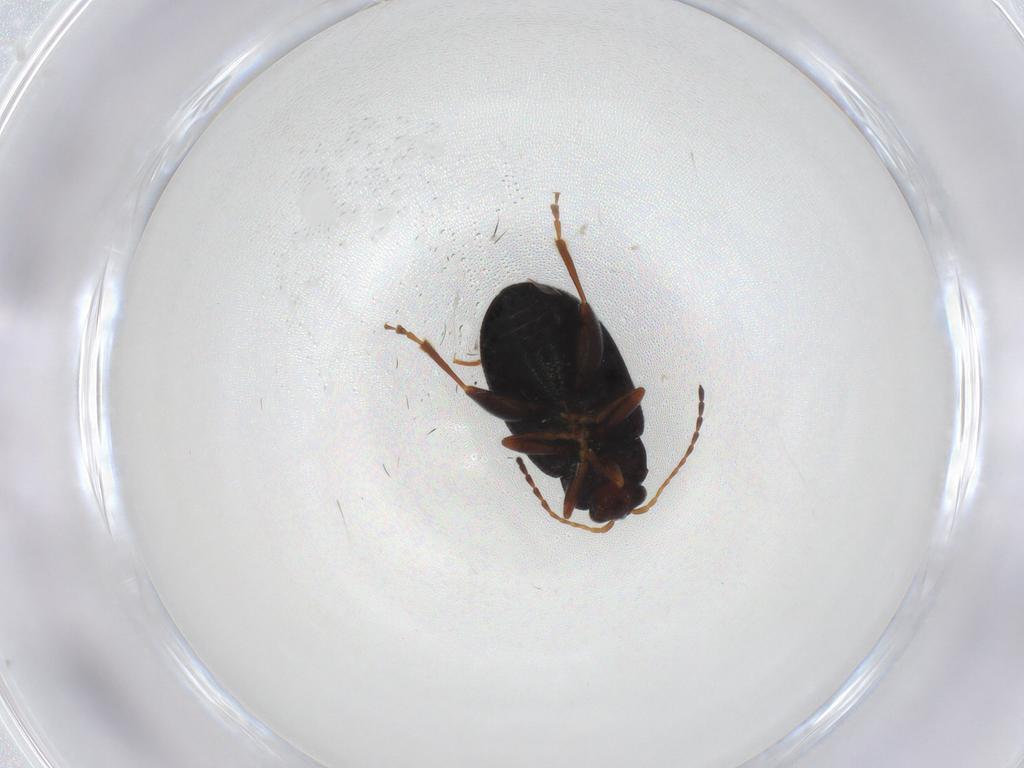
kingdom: Animalia
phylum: Arthropoda
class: Insecta
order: Coleoptera
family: Chrysomelidae
